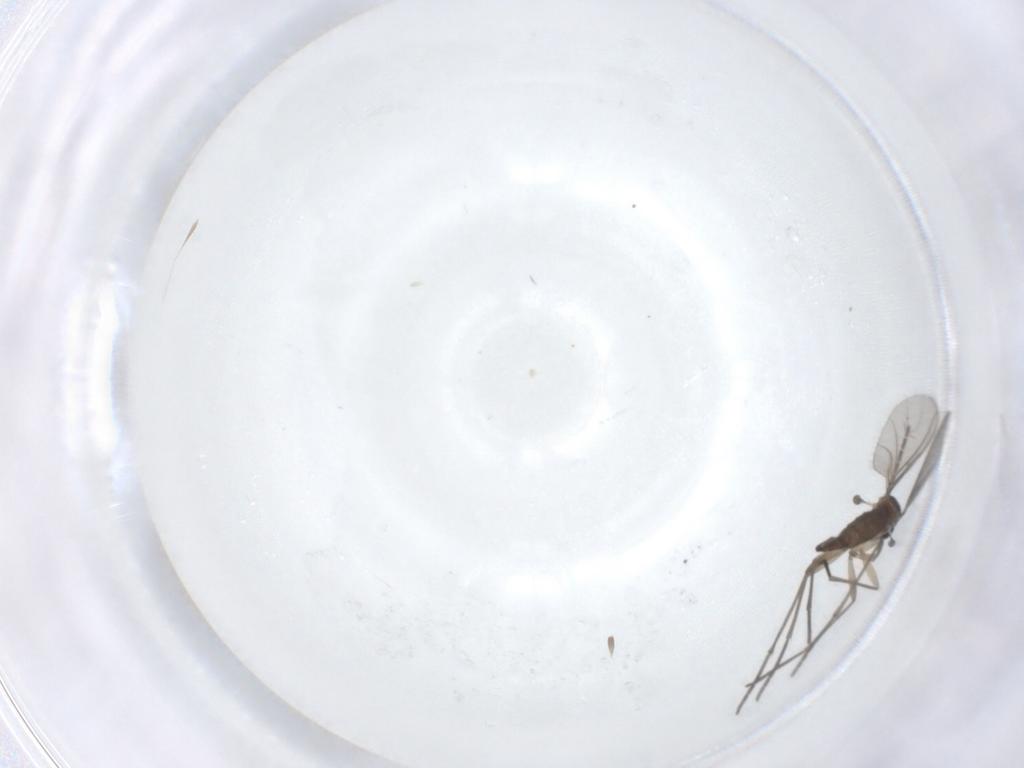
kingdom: Animalia
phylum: Arthropoda
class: Insecta
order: Diptera
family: Sciaridae
